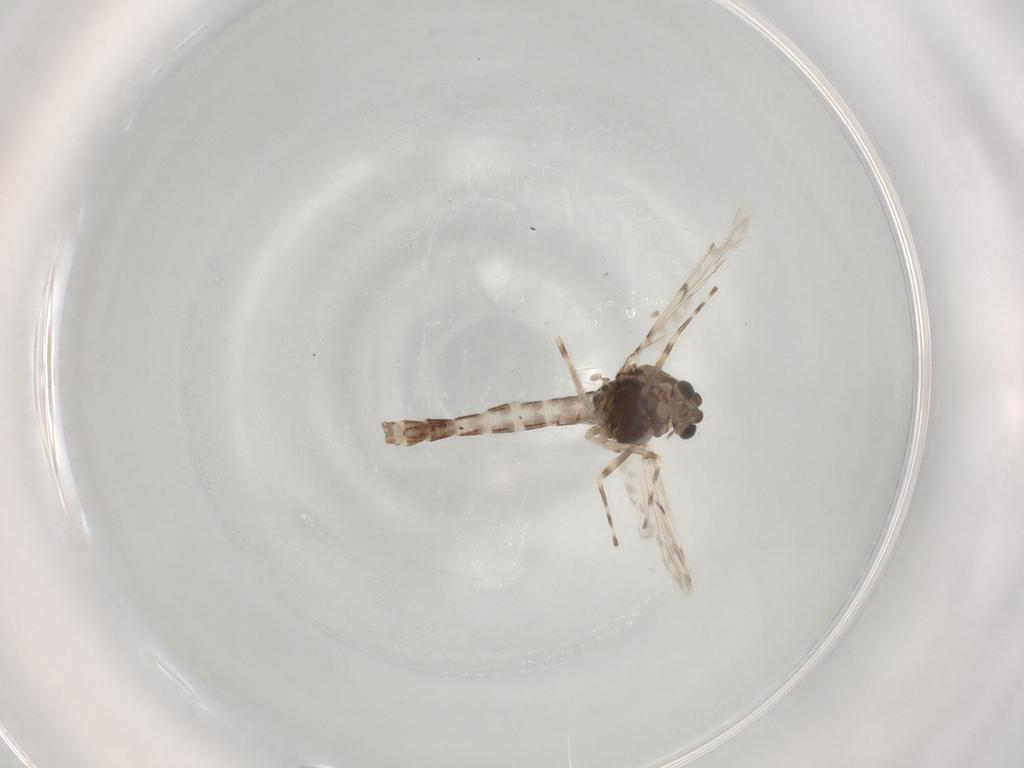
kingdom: Animalia
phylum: Arthropoda
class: Insecta
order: Diptera
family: Chironomidae
